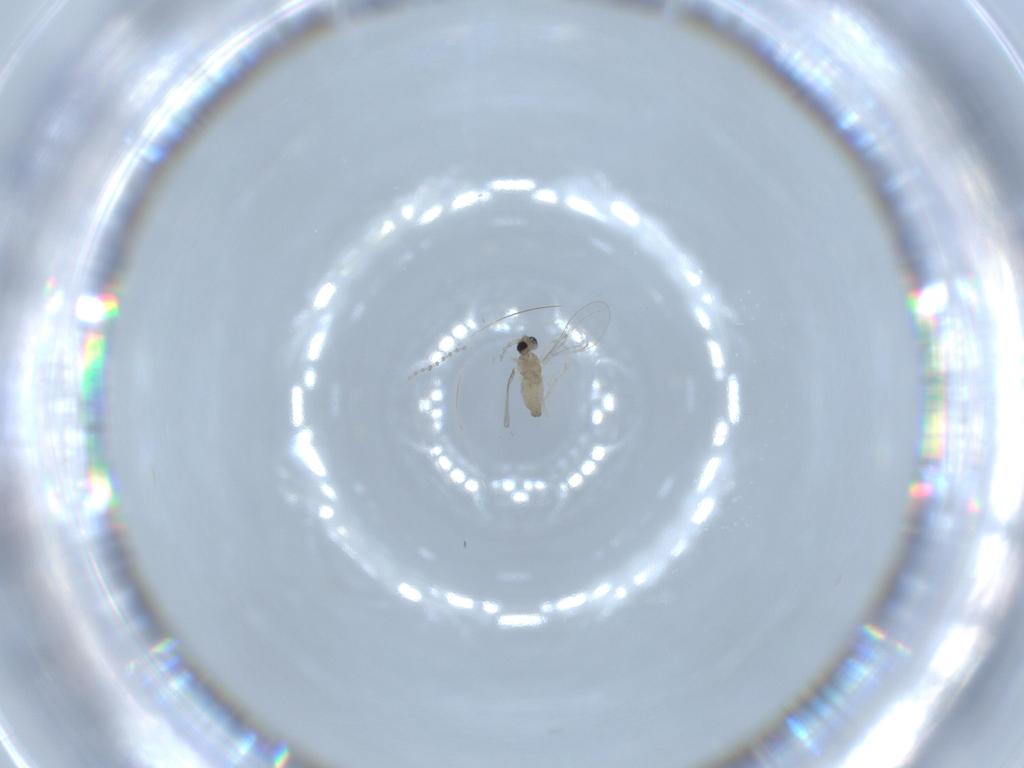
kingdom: Animalia
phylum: Arthropoda
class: Insecta
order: Diptera
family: Cecidomyiidae
